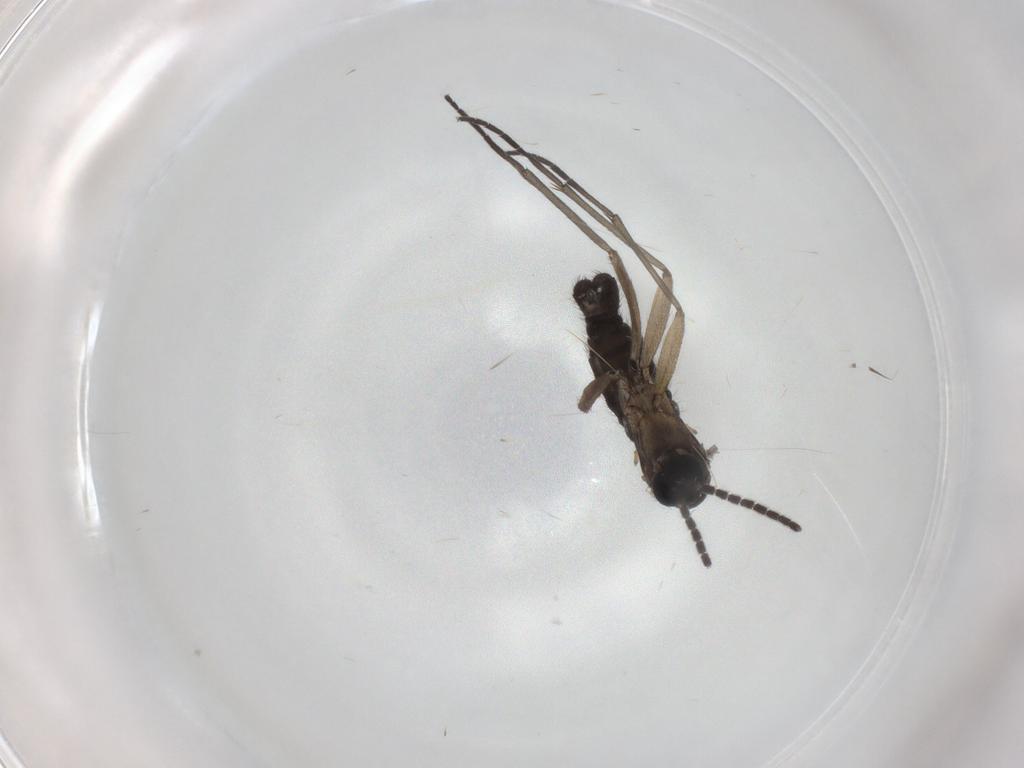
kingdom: Animalia
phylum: Arthropoda
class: Insecta
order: Diptera
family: Sciaridae
